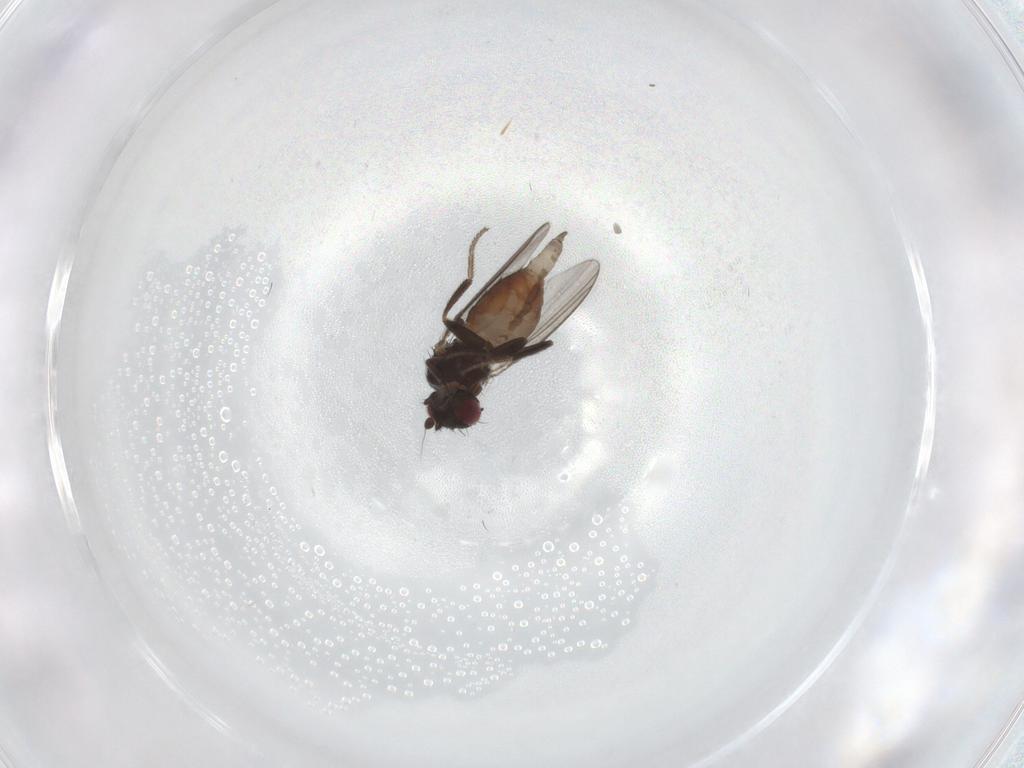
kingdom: Animalia
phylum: Arthropoda
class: Insecta
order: Diptera
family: Milichiidae
